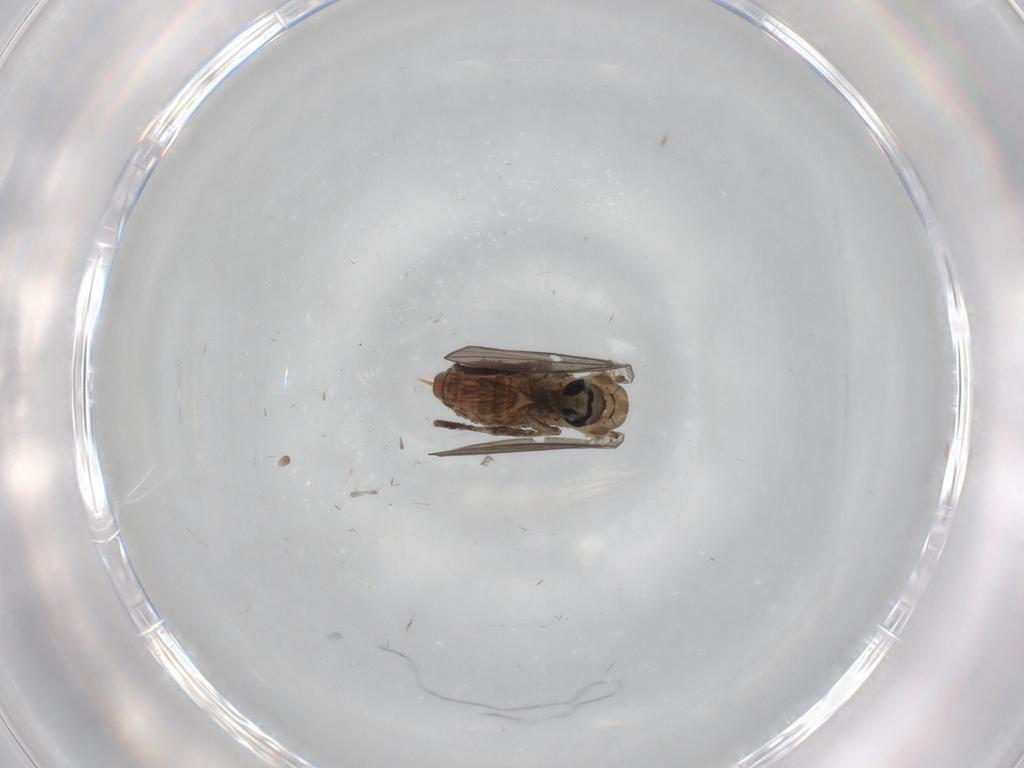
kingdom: Animalia
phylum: Arthropoda
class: Insecta
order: Diptera
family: Psychodidae
